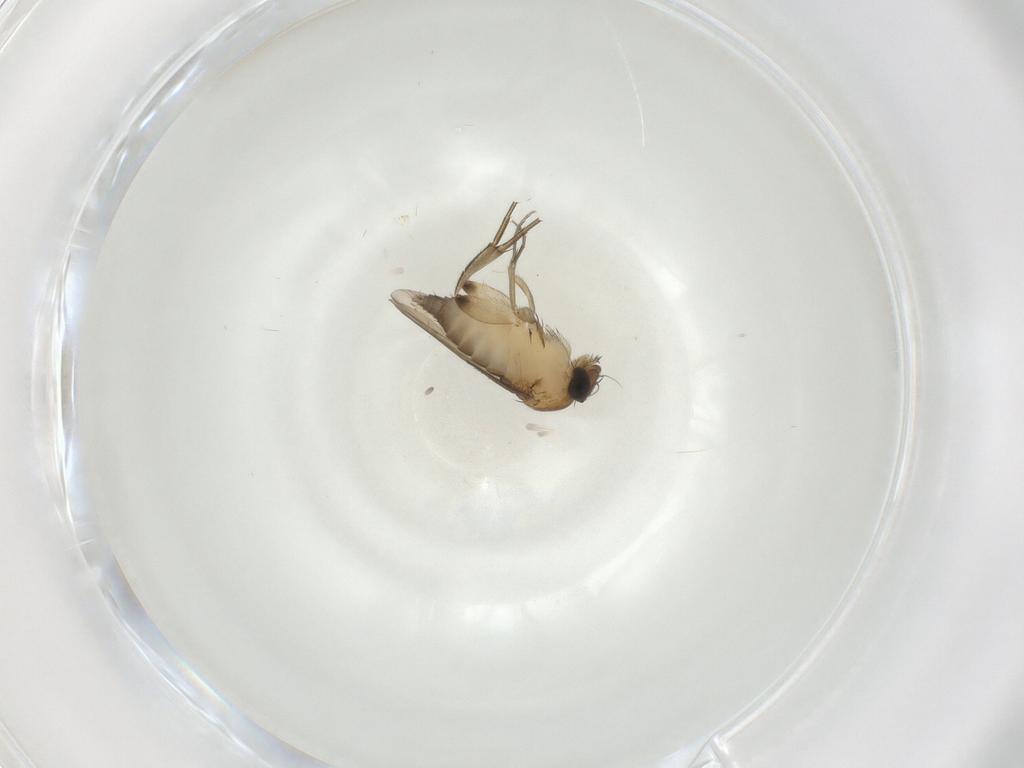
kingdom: Animalia
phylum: Arthropoda
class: Insecta
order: Diptera
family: Phoridae
